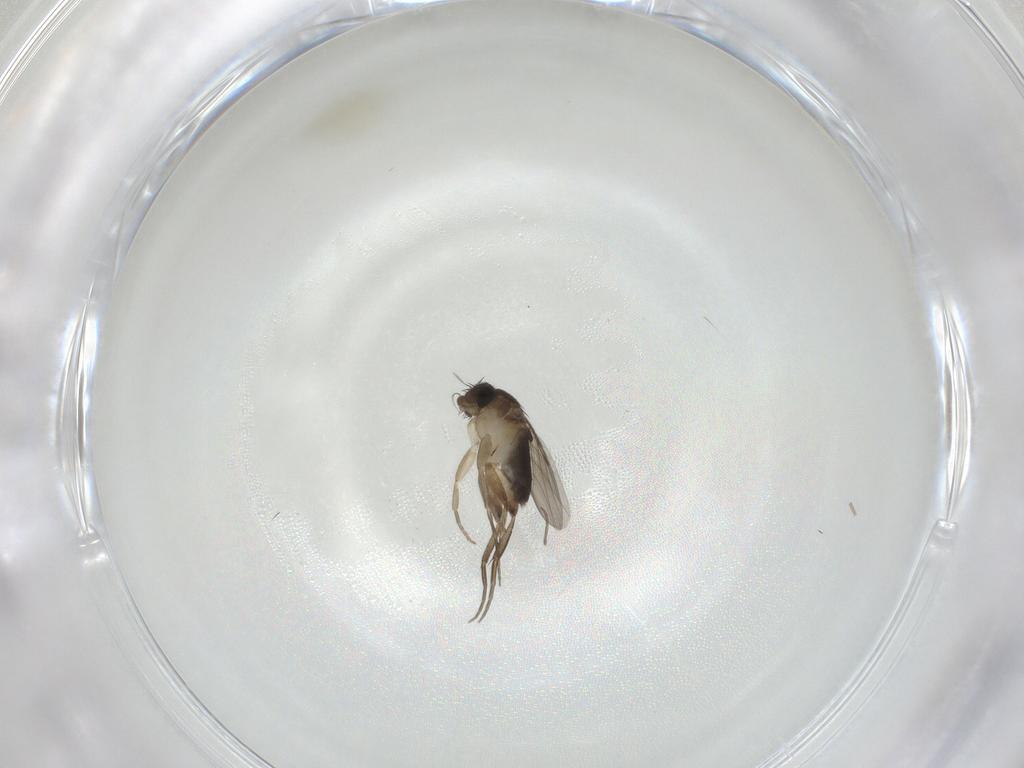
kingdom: Animalia
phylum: Arthropoda
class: Insecta
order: Diptera
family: Phoridae
